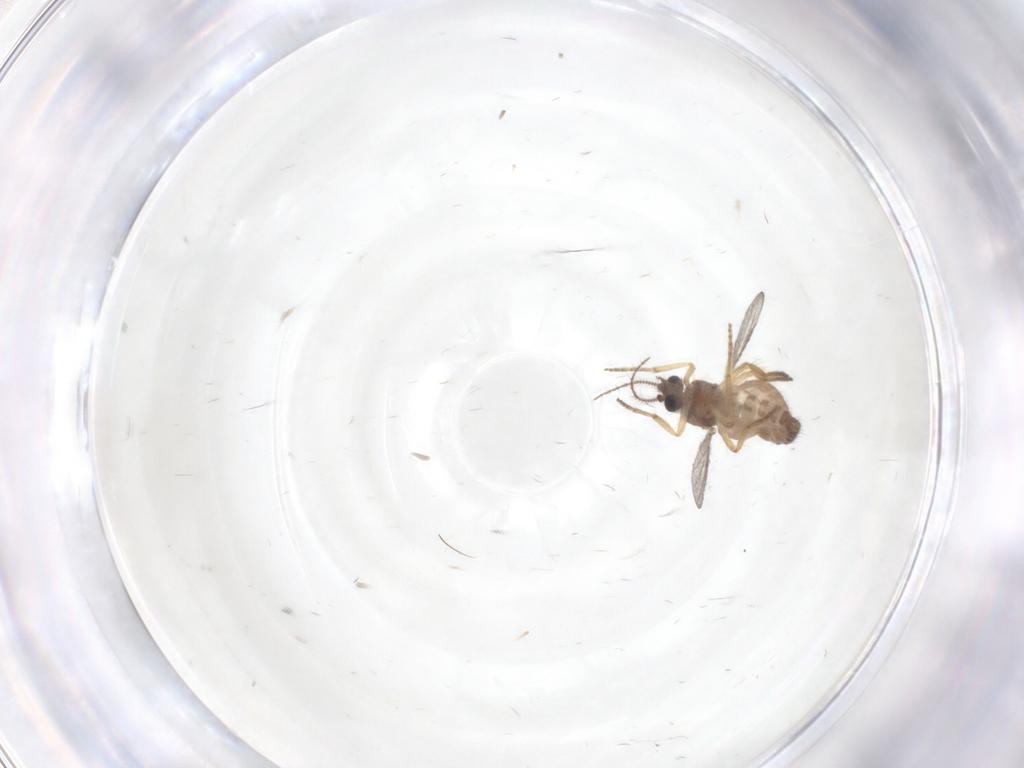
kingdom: Animalia
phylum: Arthropoda
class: Insecta
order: Diptera
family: Ceratopogonidae
